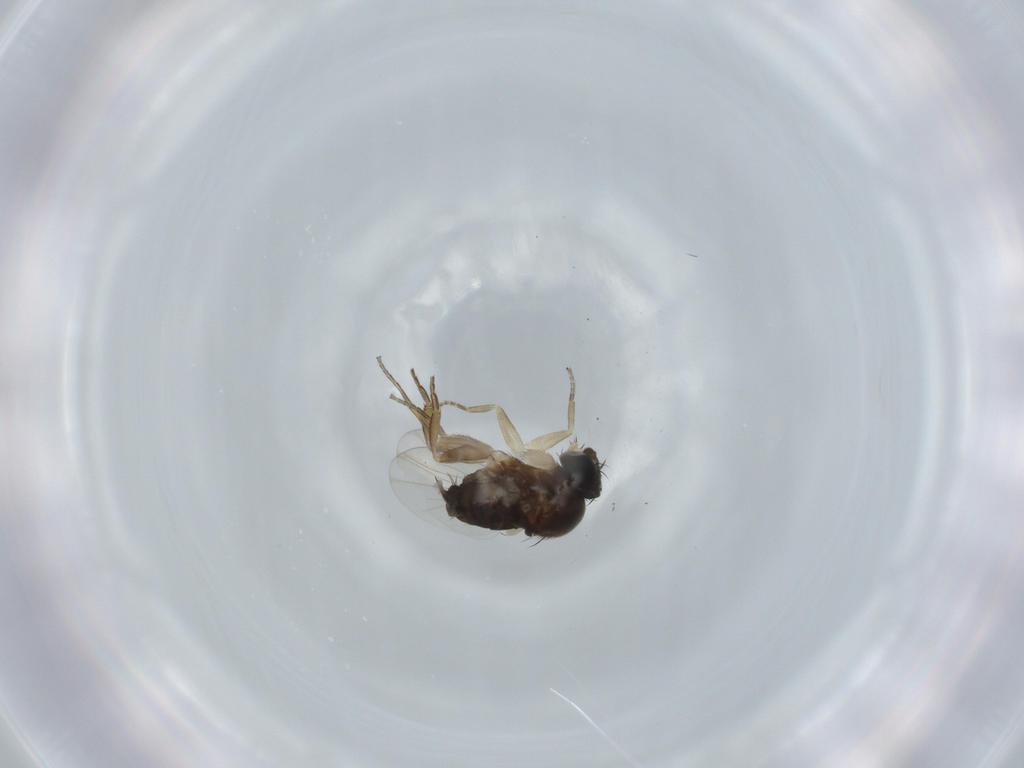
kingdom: Animalia
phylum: Arthropoda
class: Insecta
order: Diptera
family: Phoridae
